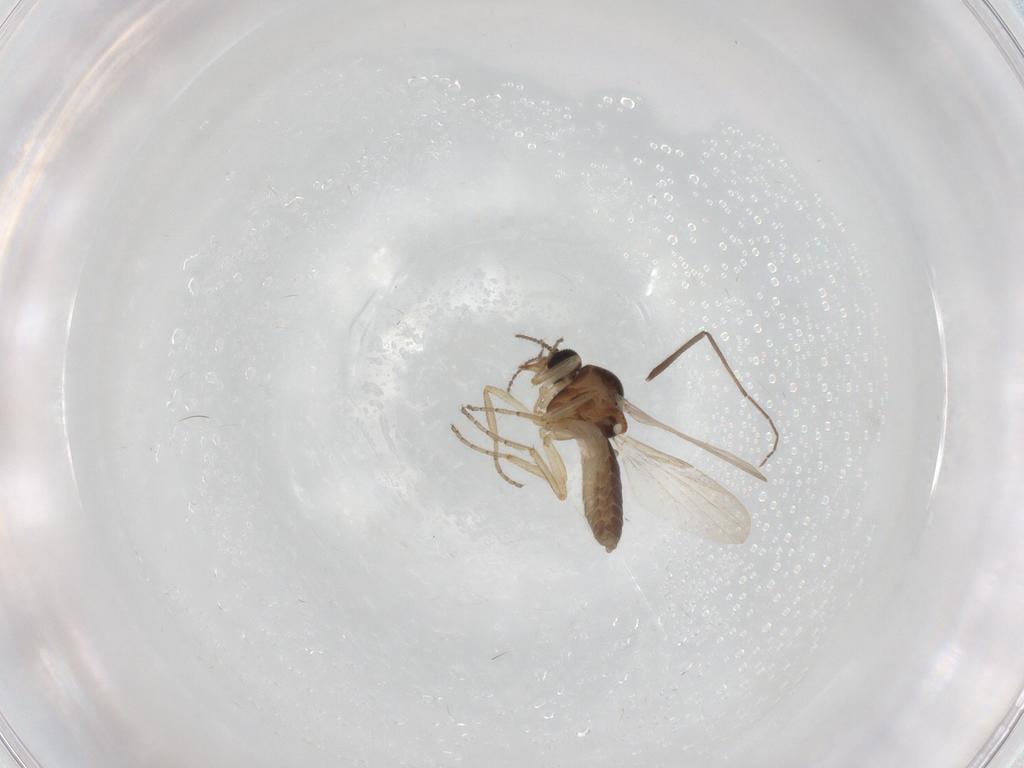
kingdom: Animalia
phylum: Arthropoda
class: Insecta
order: Diptera
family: Ceratopogonidae
